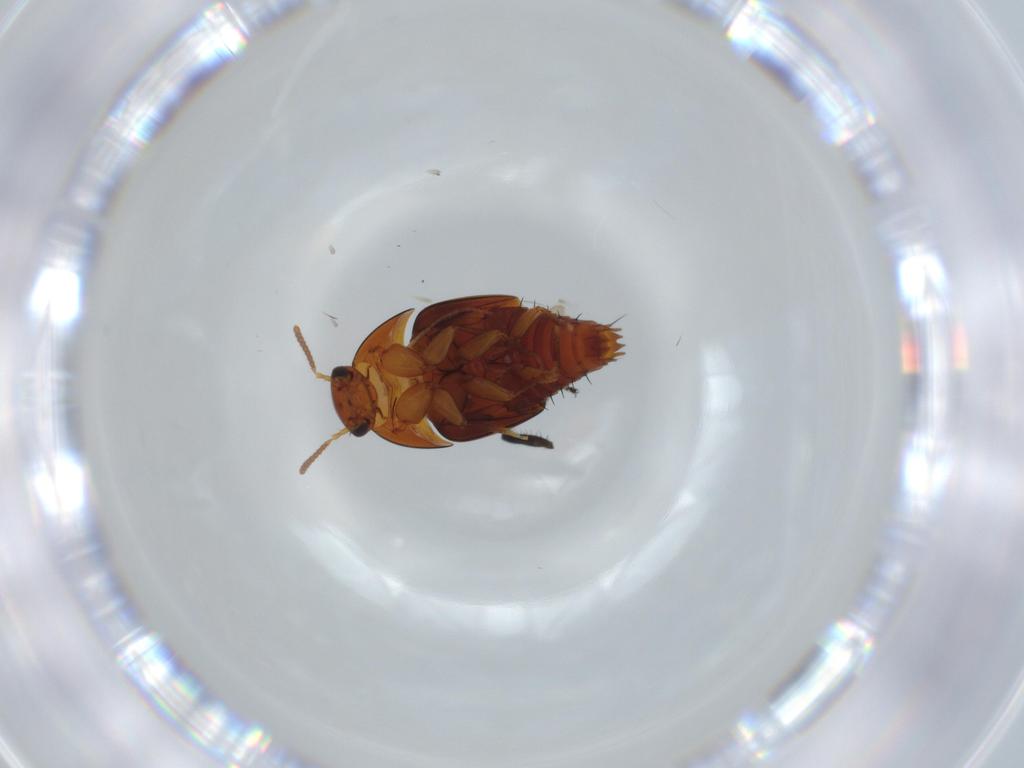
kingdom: Animalia
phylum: Arthropoda
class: Insecta
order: Coleoptera
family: Staphylinidae
